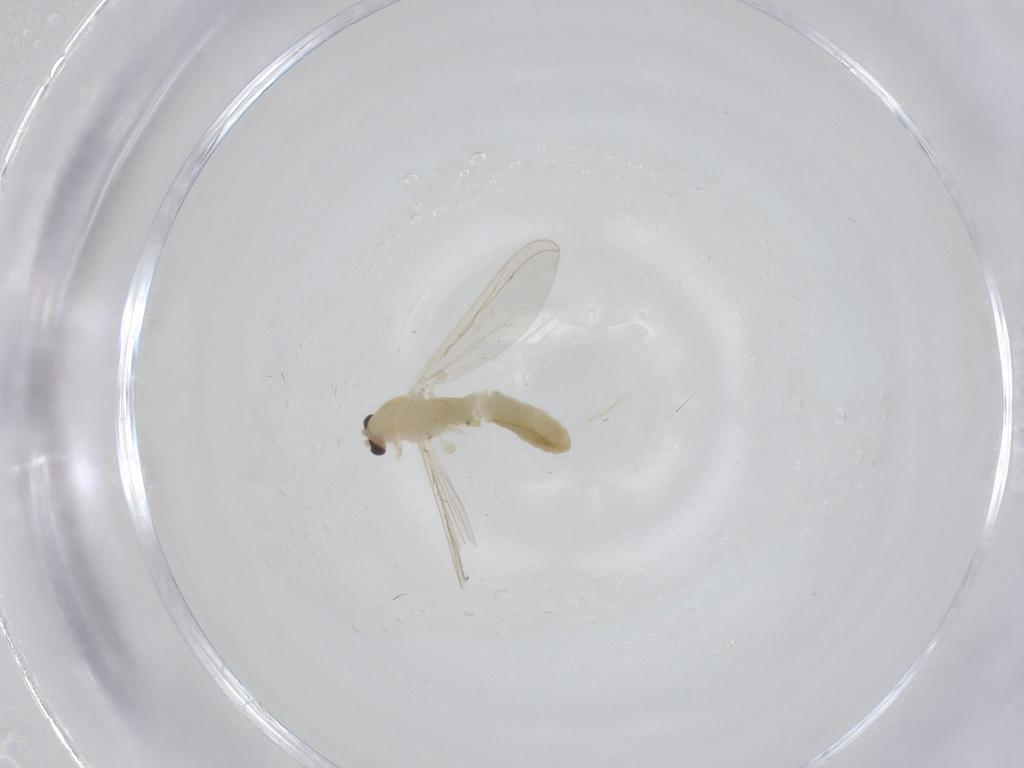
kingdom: Animalia
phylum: Arthropoda
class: Insecta
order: Diptera
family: Chironomidae
